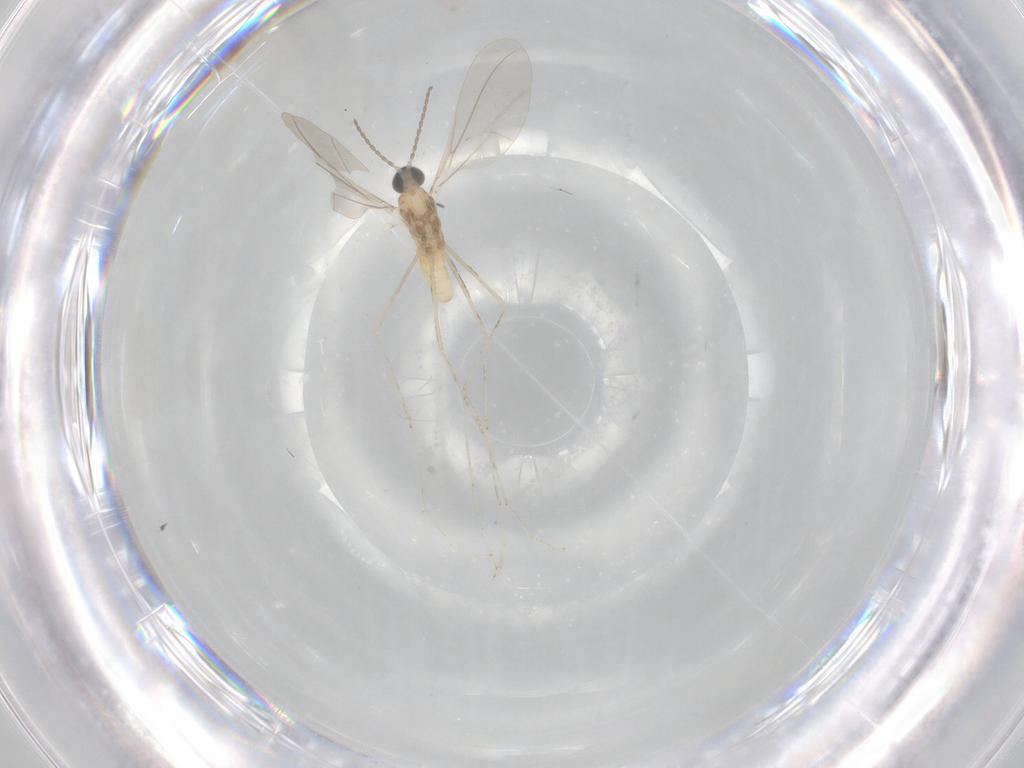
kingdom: Animalia
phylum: Arthropoda
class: Insecta
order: Diptera
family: Cecidomyiidae
